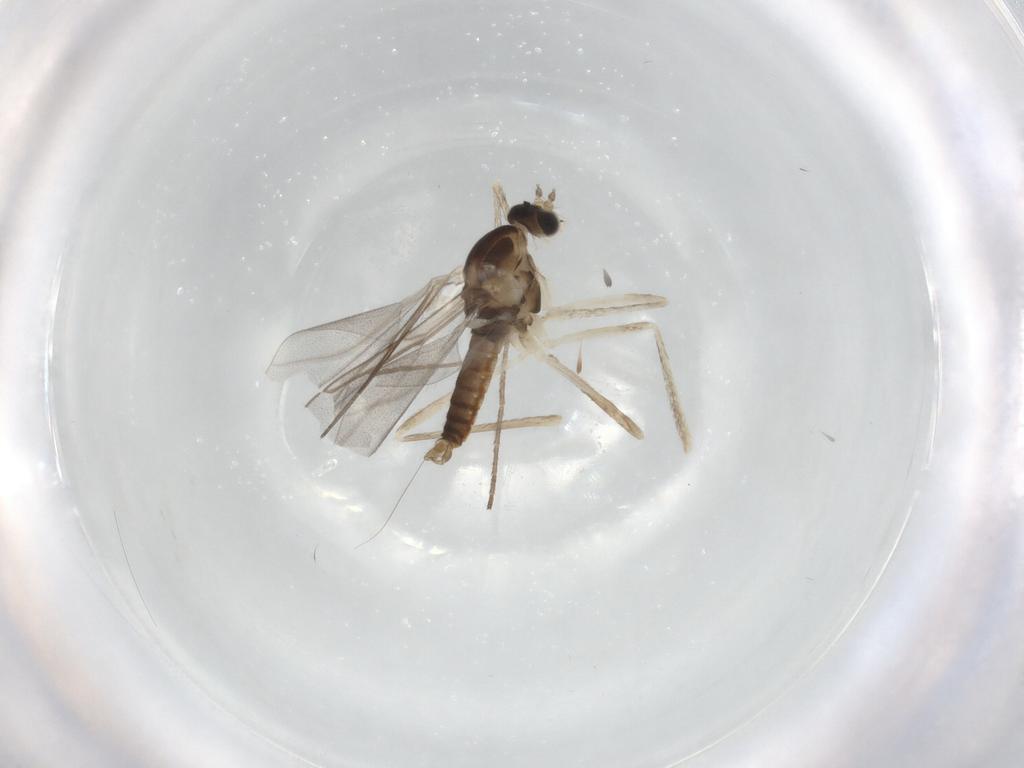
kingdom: Animalia
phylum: Arthropoda
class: Insecta
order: Diptera
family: Cecidomyiidae
